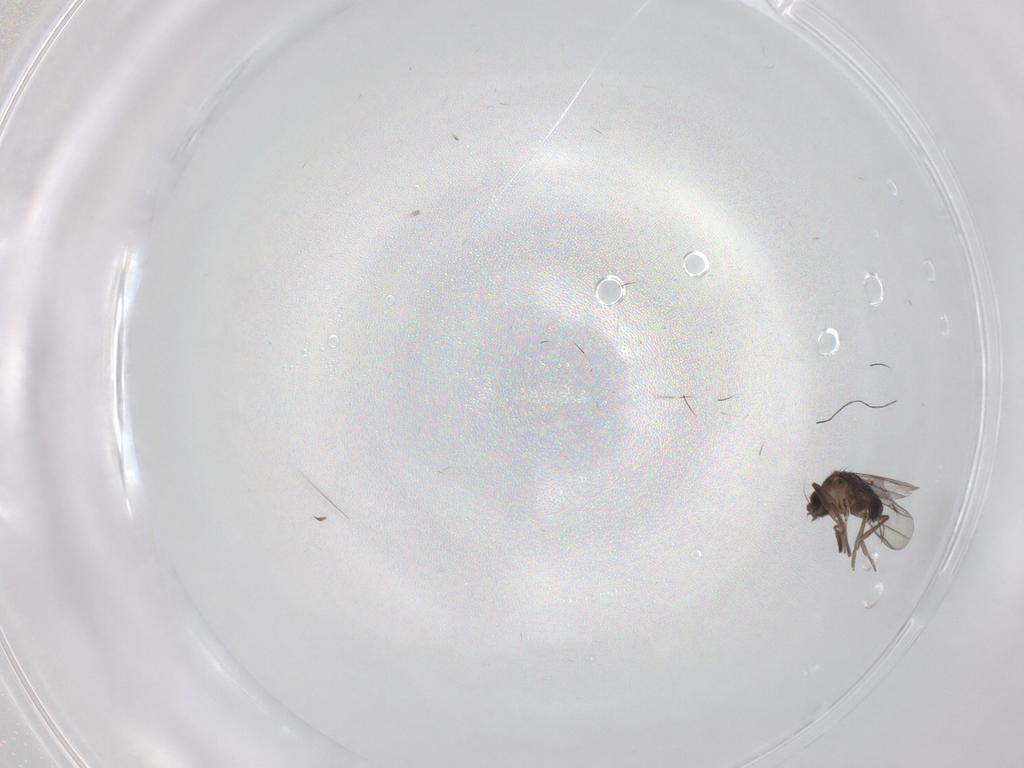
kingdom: Animalia
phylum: Arthropoda
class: Insecta
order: Diptera
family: Phoridae
